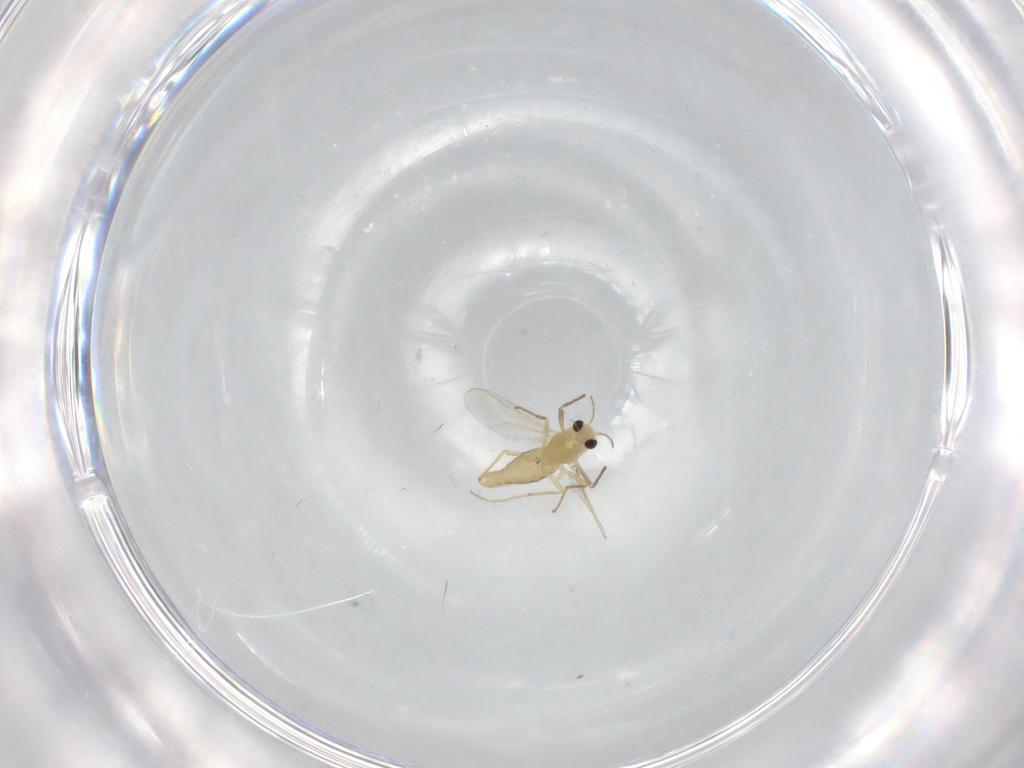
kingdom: Animalia
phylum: Arthropoda
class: Insecta
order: Diptera
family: Chironomidae
